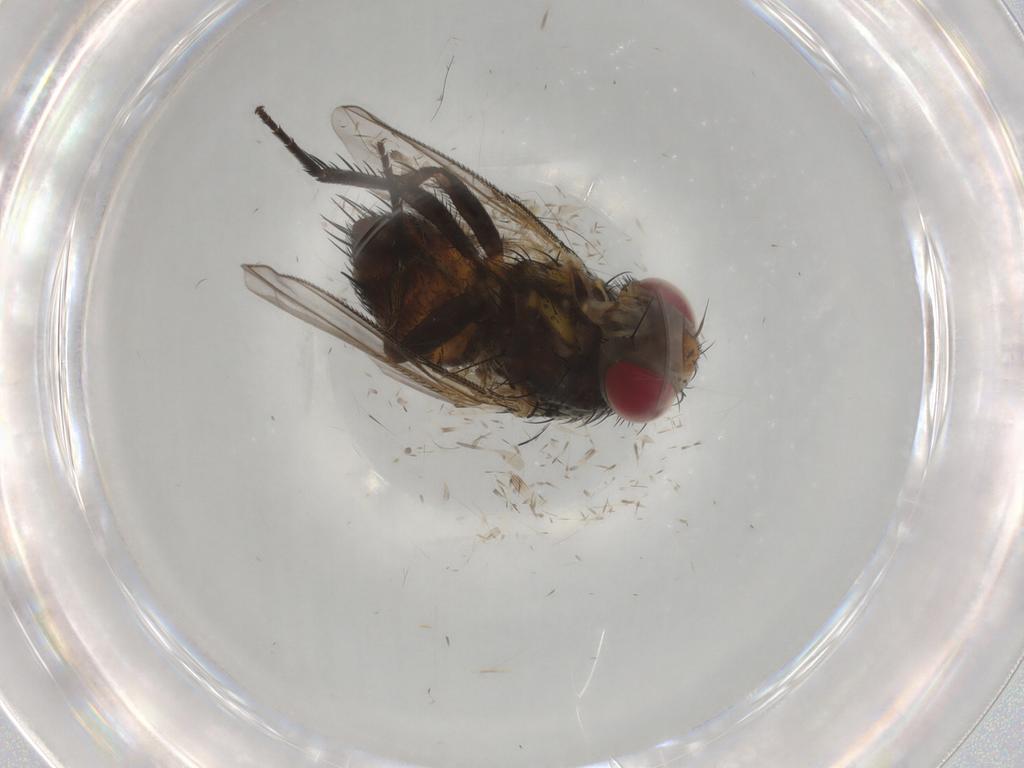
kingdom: Animalia
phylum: Arthropoda
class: Insecta
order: Diptera
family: Asilidae
